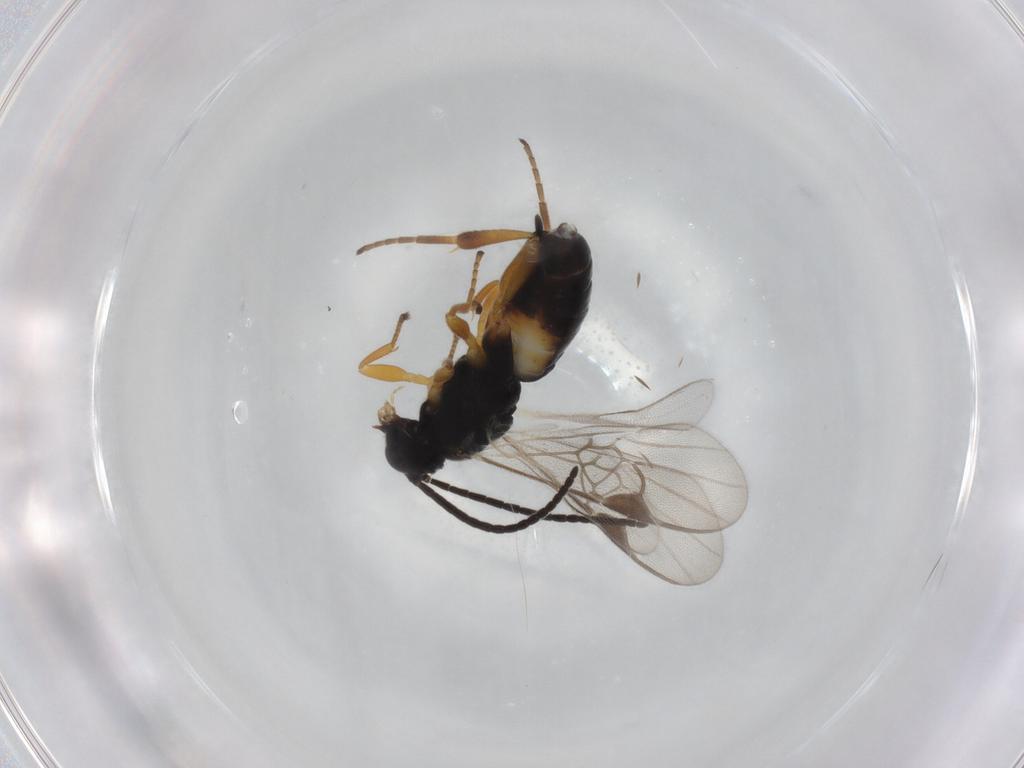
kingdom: Animalia
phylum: Arthropoda
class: Insecta
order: Hymenoptera
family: Braconidae
